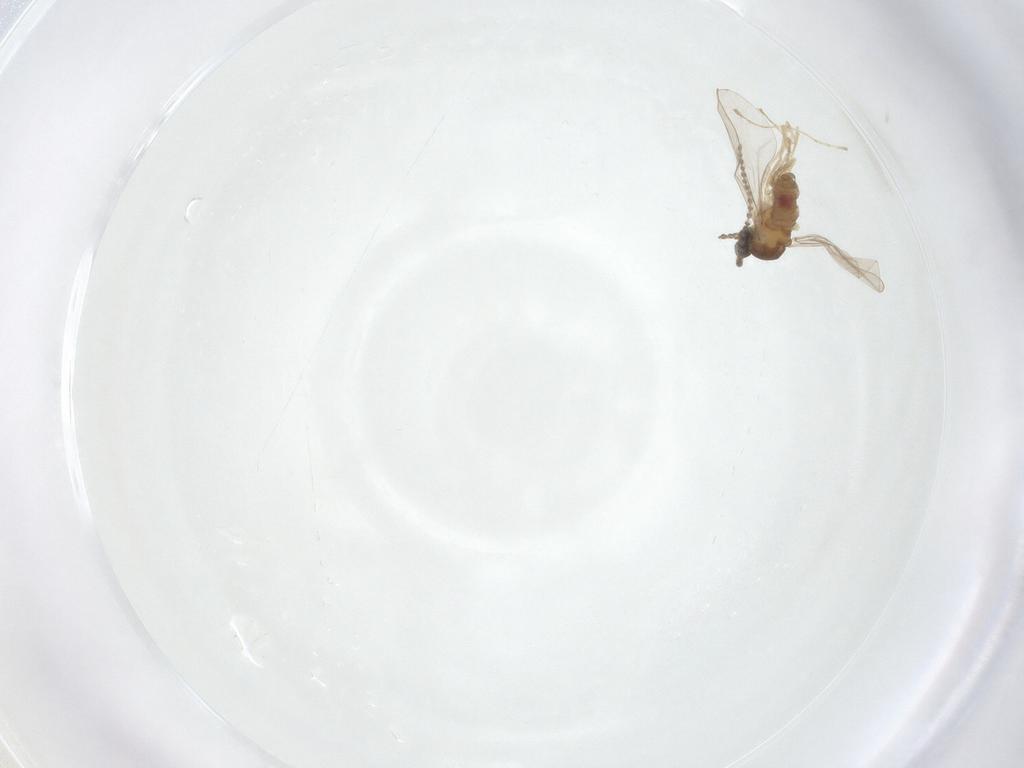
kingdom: Animalia
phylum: Arthropoda
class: Insecta
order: Diptera
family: Cecidomyiidae
